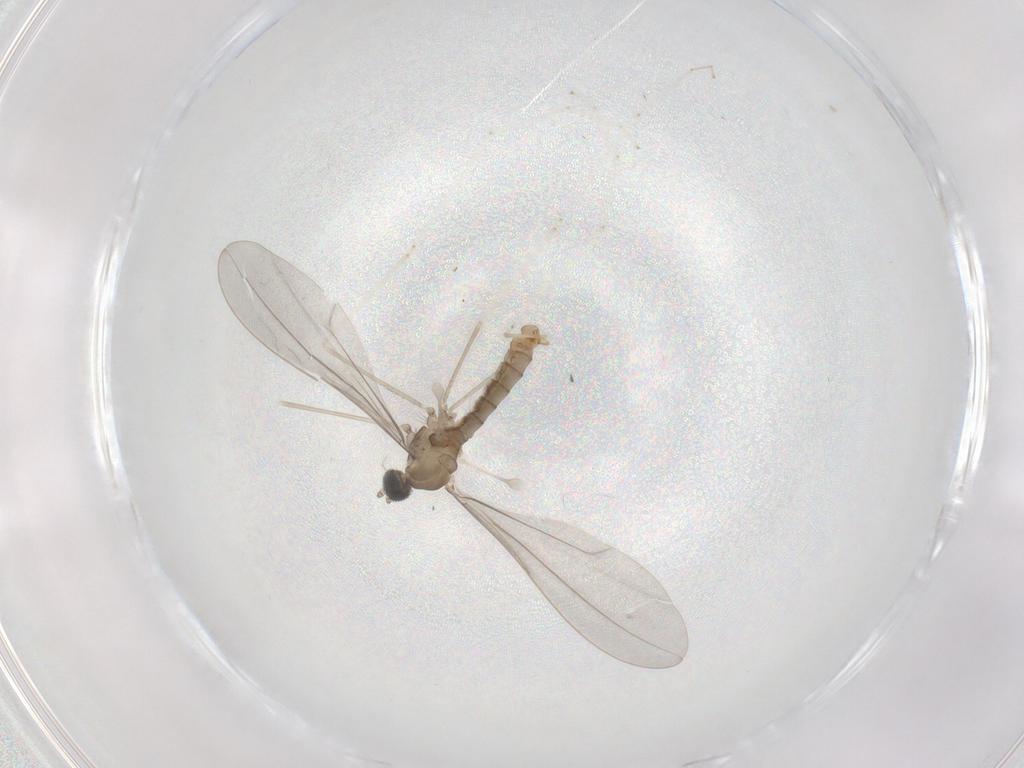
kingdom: Animalia
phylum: Arthropoda
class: Insecta
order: Diptera
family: Cecidomyiidae
